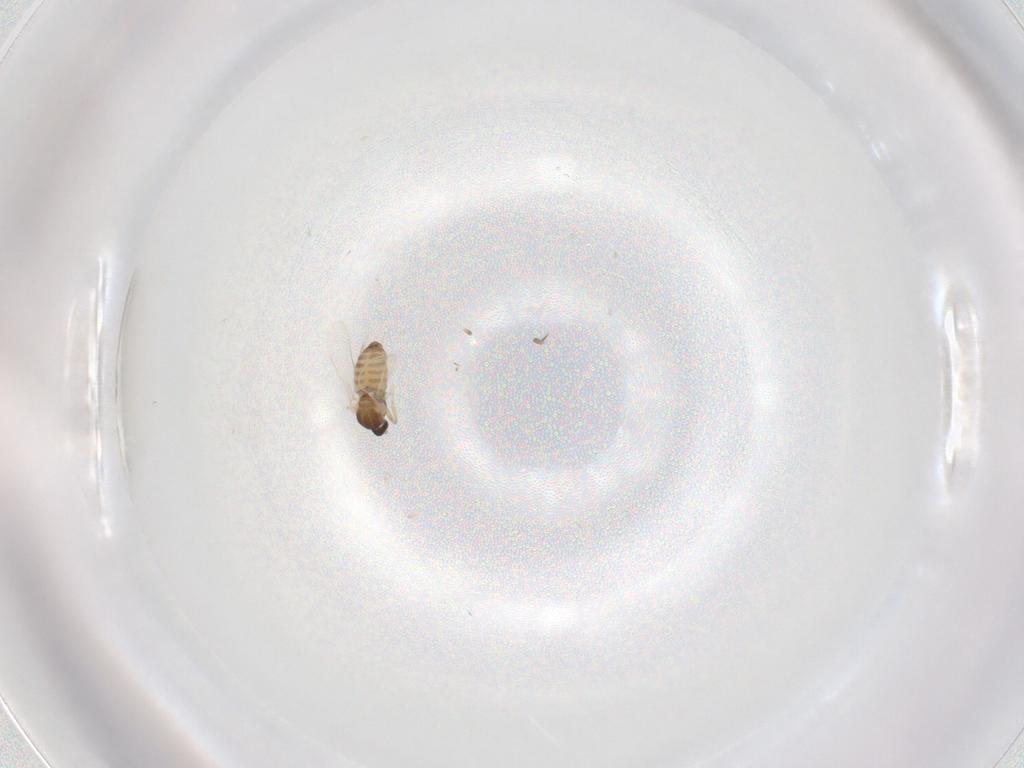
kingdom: Animalia
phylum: Arthropoda
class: Insecta
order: Diptera
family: Cecidomyiidae
